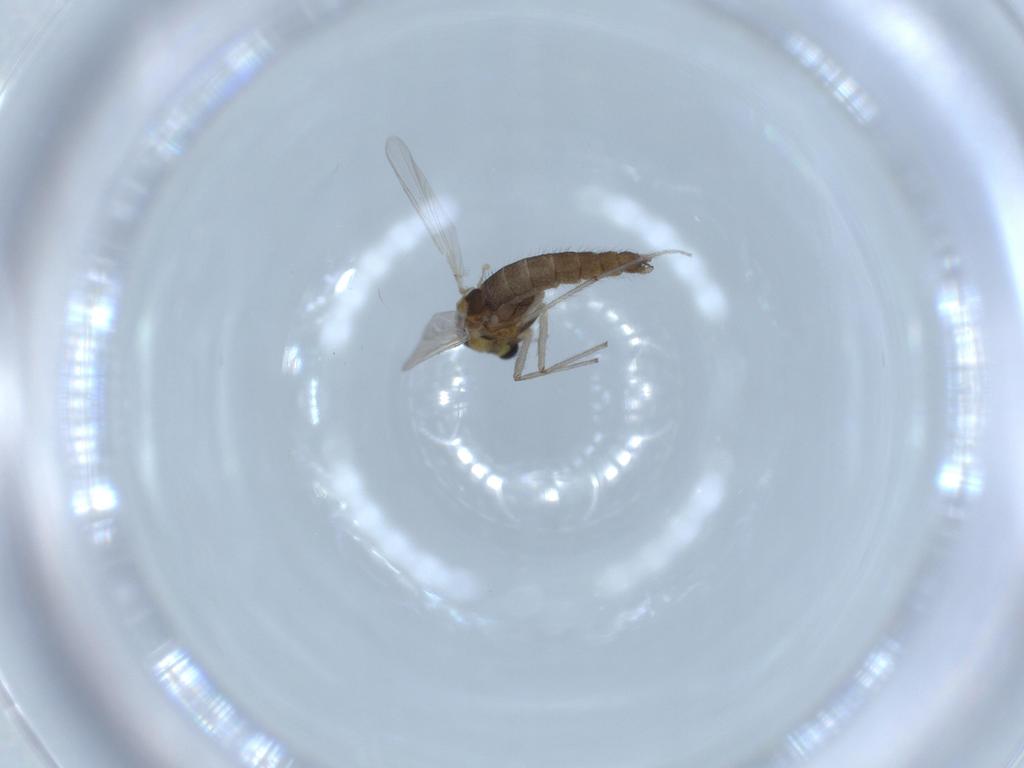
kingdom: Animalia
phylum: Arthropoda
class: Insecta
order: Diptera
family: Chironomidae
